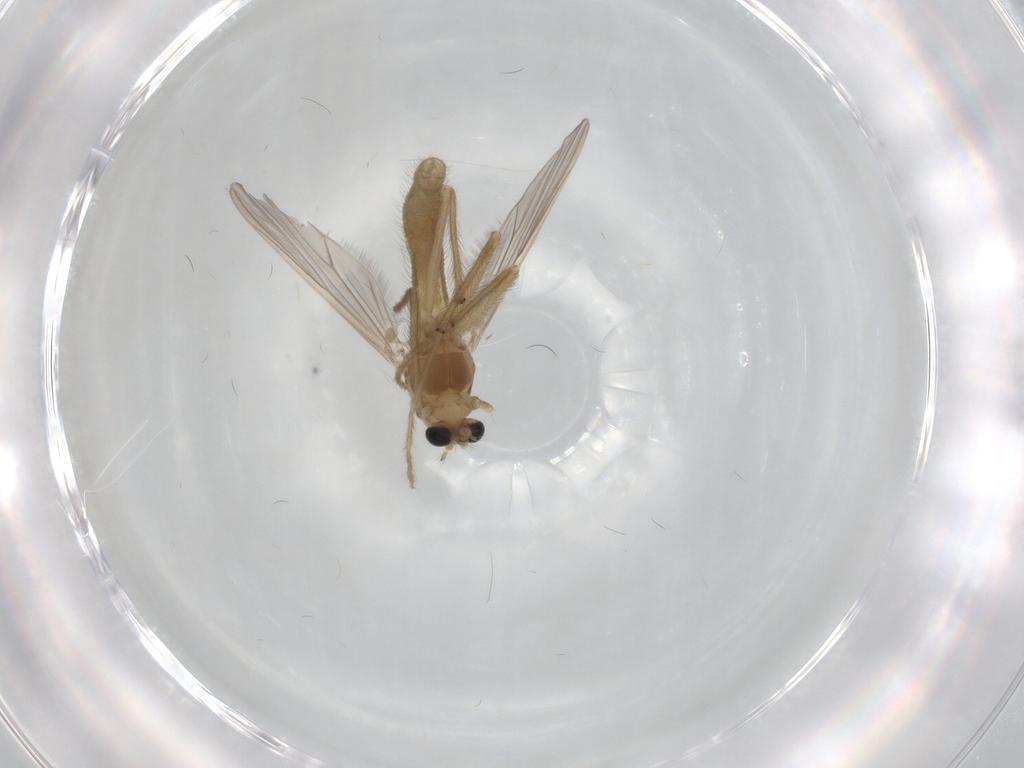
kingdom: Animalia
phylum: Arthropoda
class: Insecta
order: Diptera
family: Chironomidae
